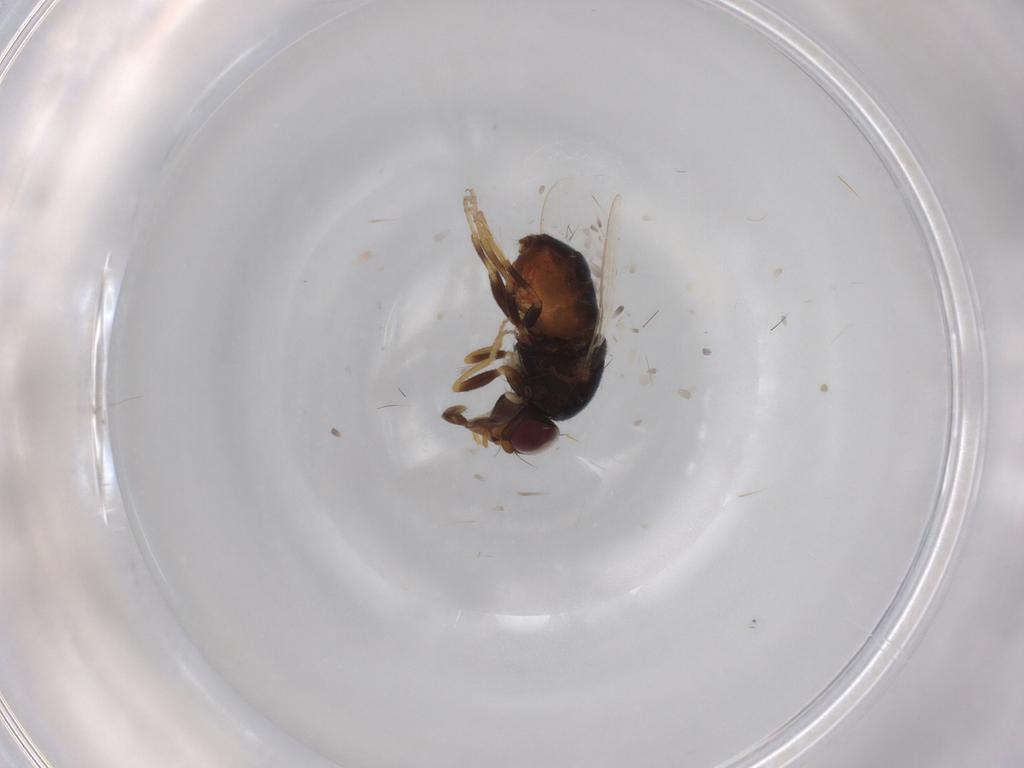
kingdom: Animalia
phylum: Arthropoda
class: Insecta
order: Diptera
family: Chloropidae
